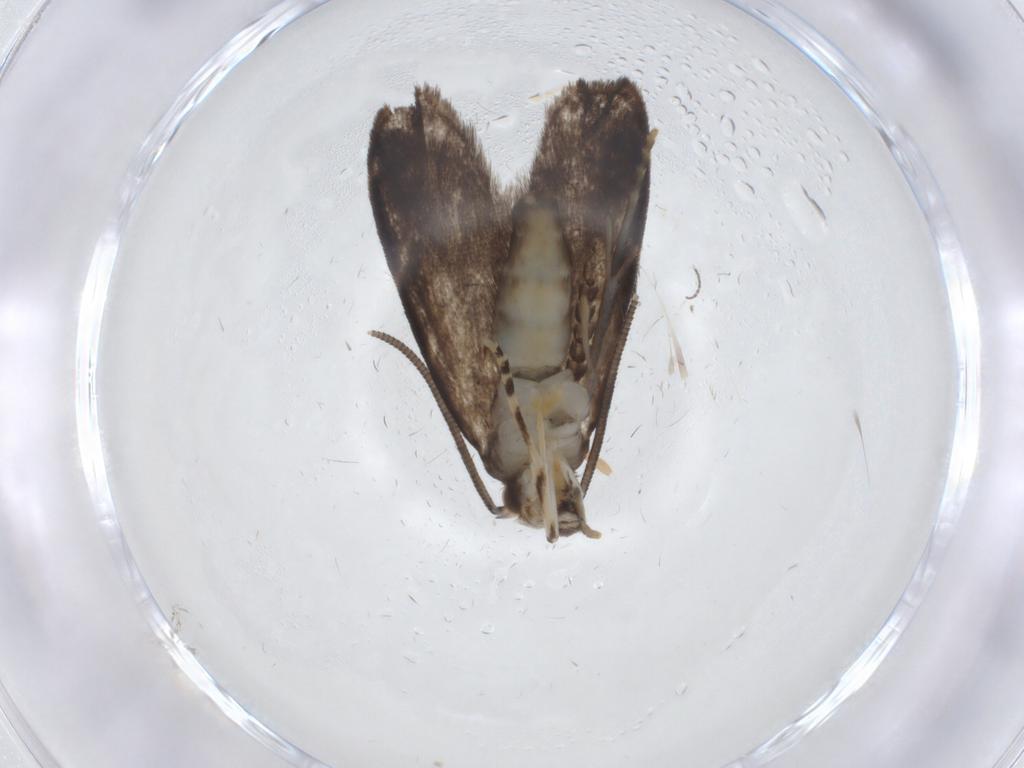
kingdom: Animalia
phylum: Arthropoda
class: Insecta
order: Lepidoptera
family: Dryadaulidae
